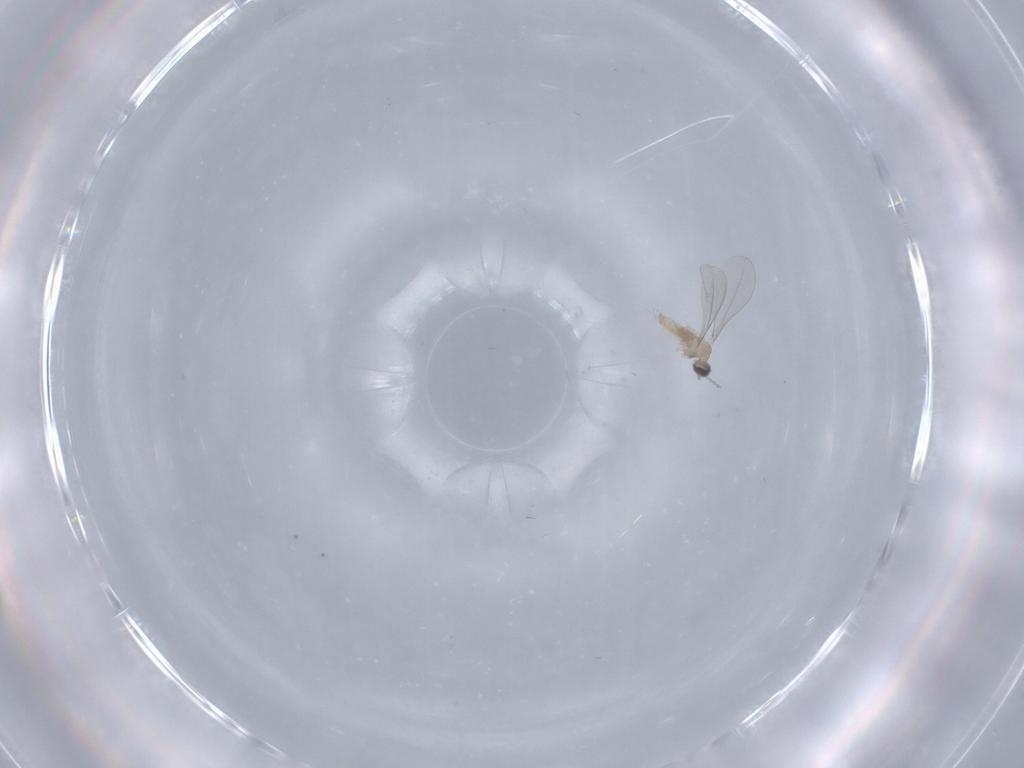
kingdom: Animalia
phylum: Arthropoda
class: Insecta
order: Diptera
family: Cecidomyiidae
